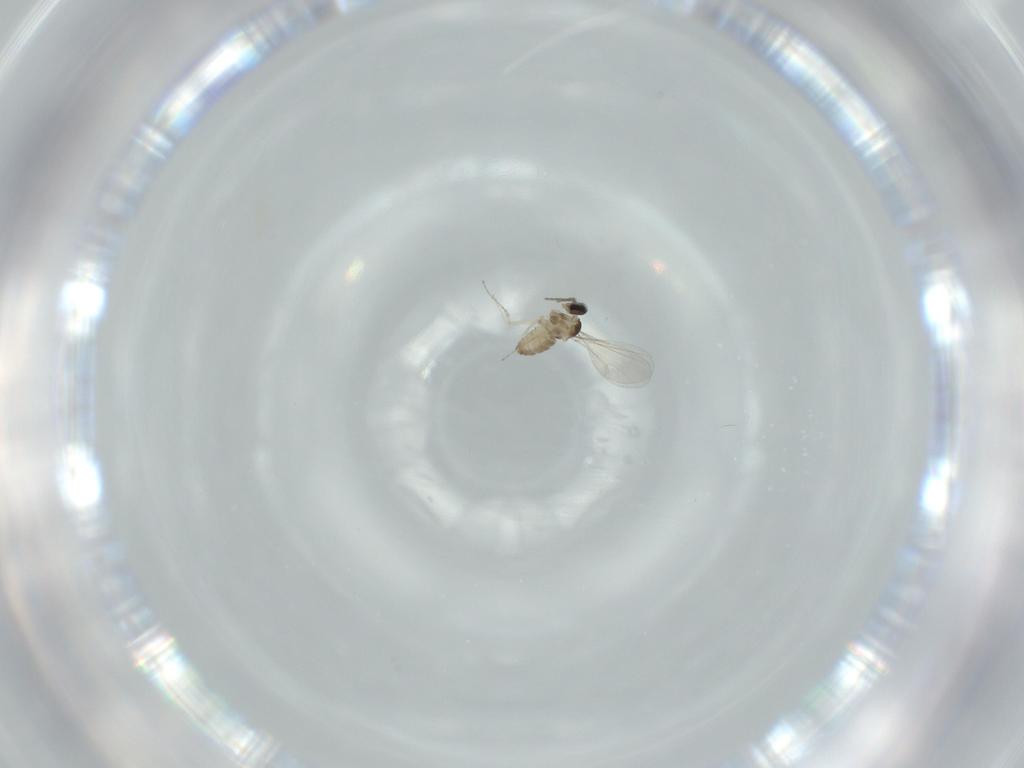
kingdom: Animalia
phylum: Arthropoda
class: Insecta
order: Diptera
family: Cecidomyiidae
